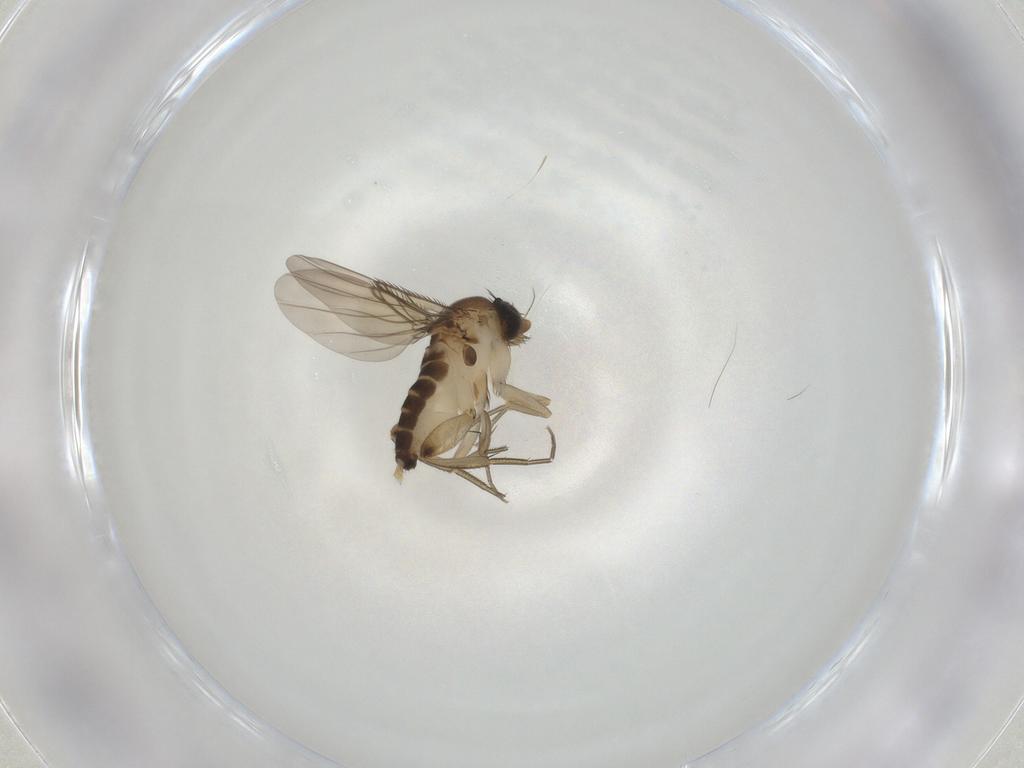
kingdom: Animalia
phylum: Arthropoda
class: Insecta
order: Diptera
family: Phoridae
